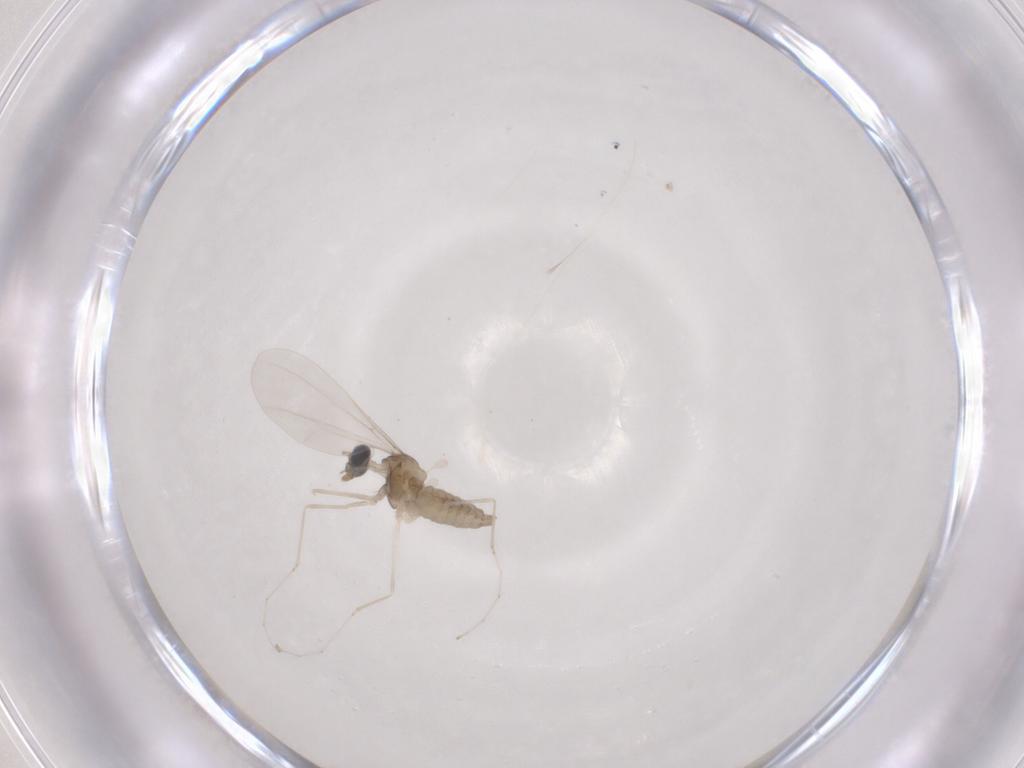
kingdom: Animalia
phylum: Arthropoda
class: Insecta
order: Diptera
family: Cecidomyiidae
